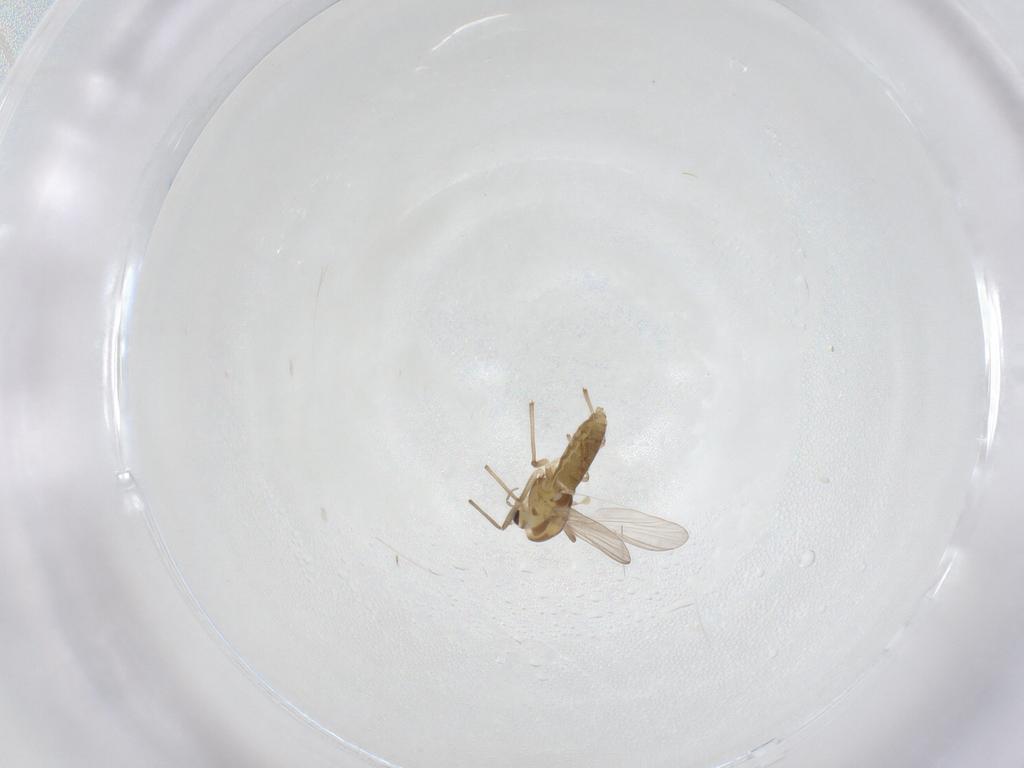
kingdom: Animalia
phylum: Arthropoda
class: Insecta
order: Diptera
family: Chironomidae
